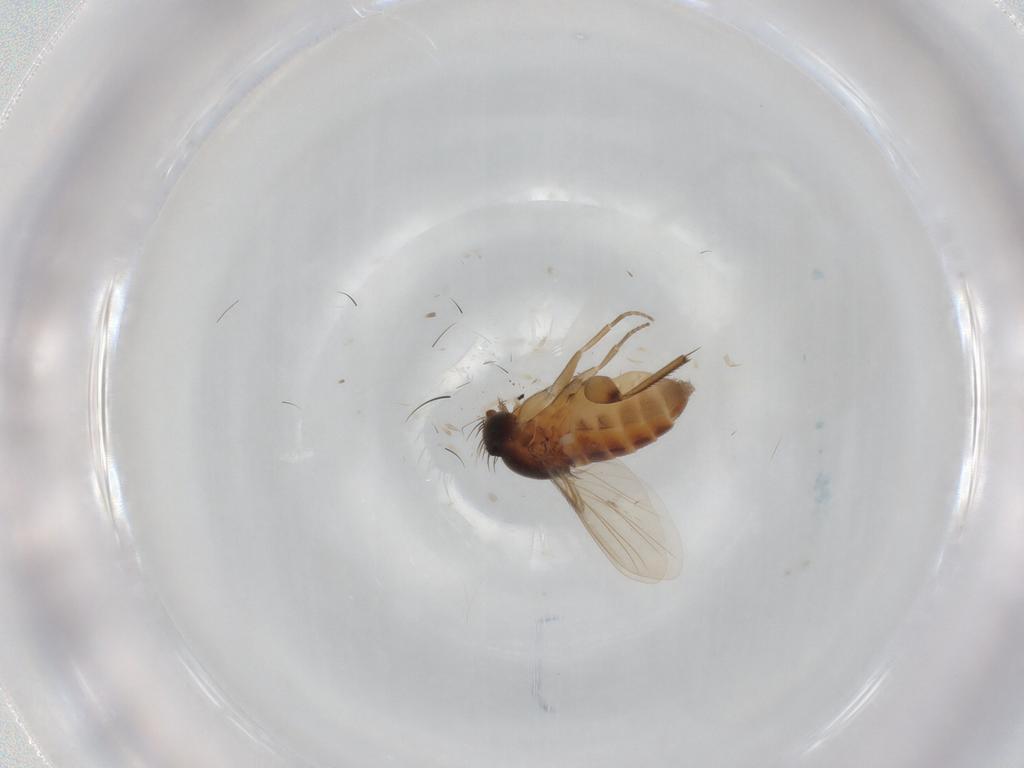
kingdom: Animalia
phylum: Arthropoda
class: Insecta
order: Diptera
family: Phoridae
